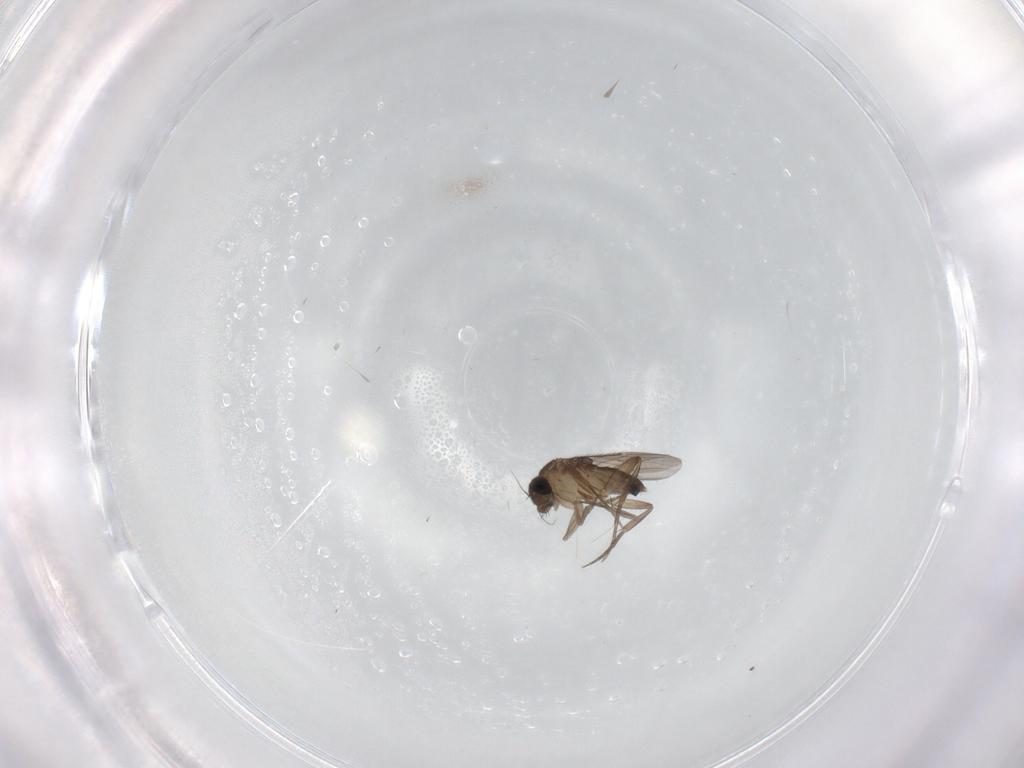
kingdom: Animalia
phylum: Arthropoda
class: Insecta
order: Diptera
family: Phoridae
